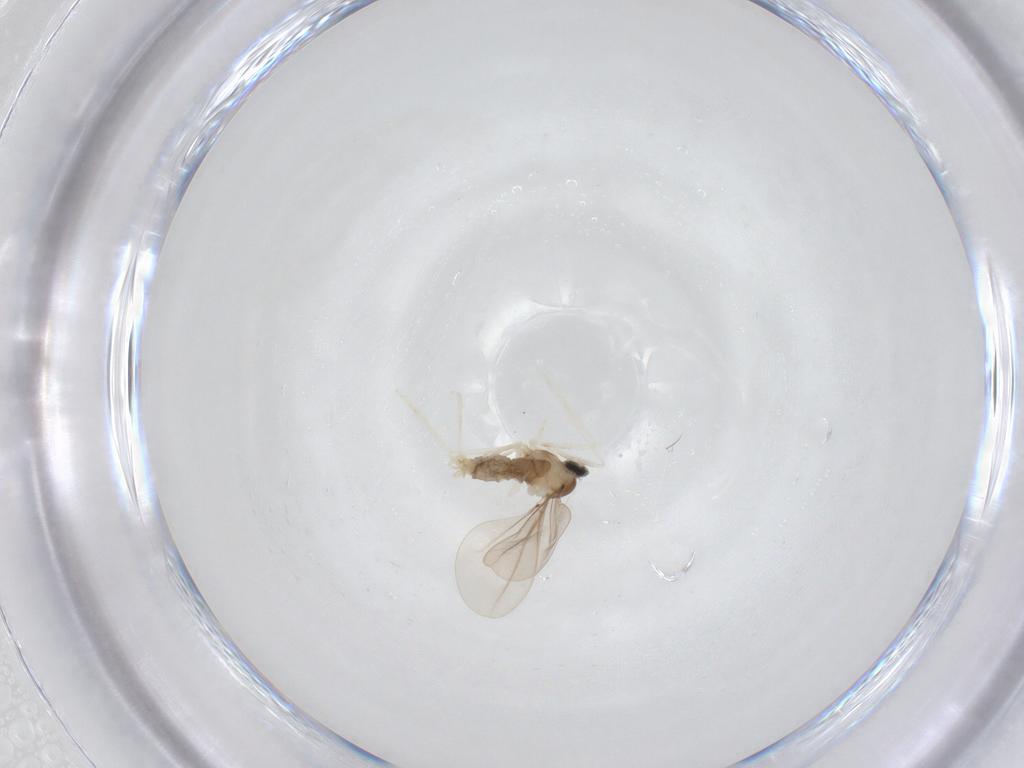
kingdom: Animalia
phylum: Arthropoda
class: Insecta
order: Diptera
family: Cecidomyiidae
